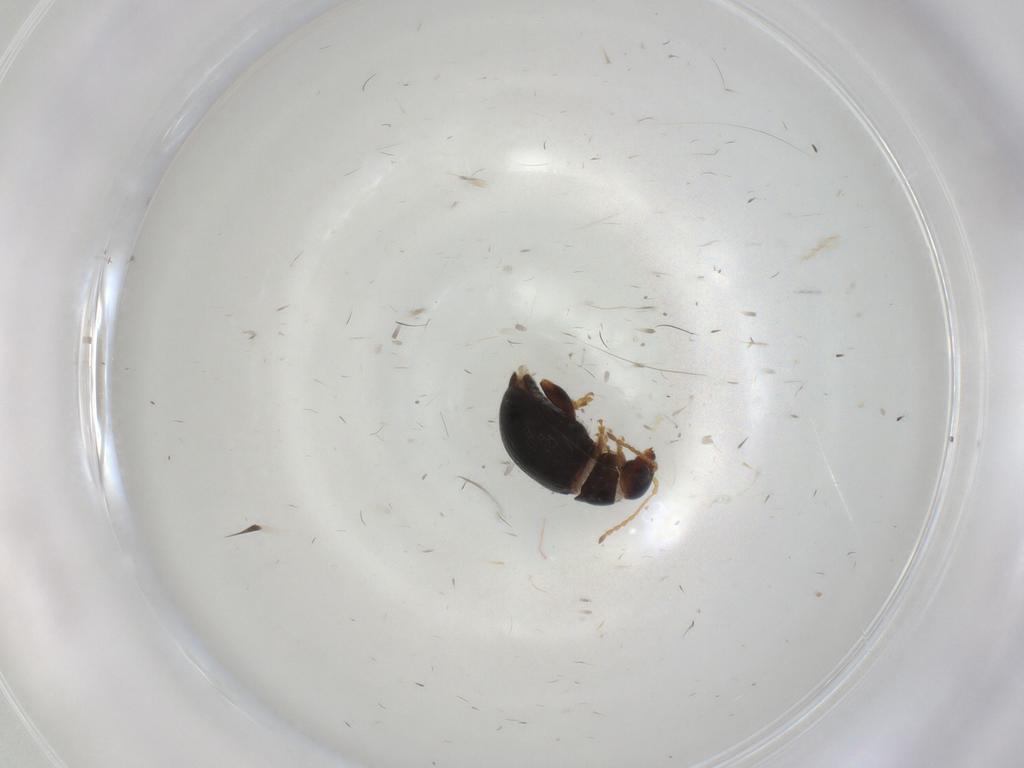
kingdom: Animalia
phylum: Arthropoda
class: Insecta
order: Coleoptera
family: Chrysomelidae
